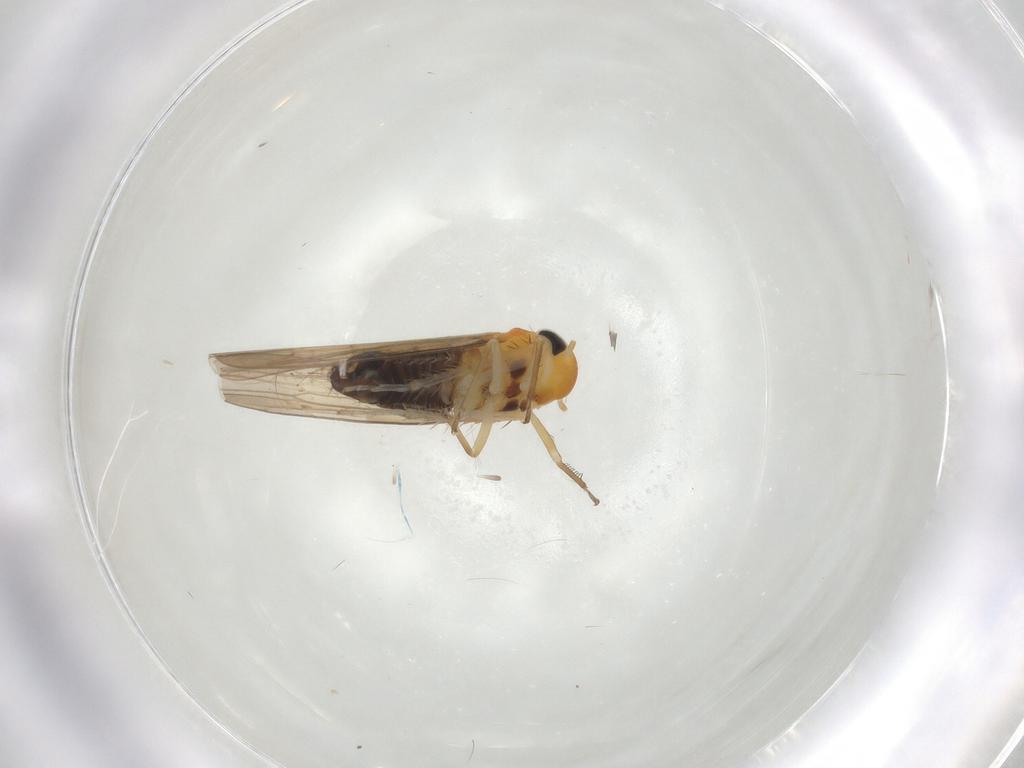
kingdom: Animalia
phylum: Arthropoda
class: Insecta
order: Hemiptera
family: Cicadellidae
